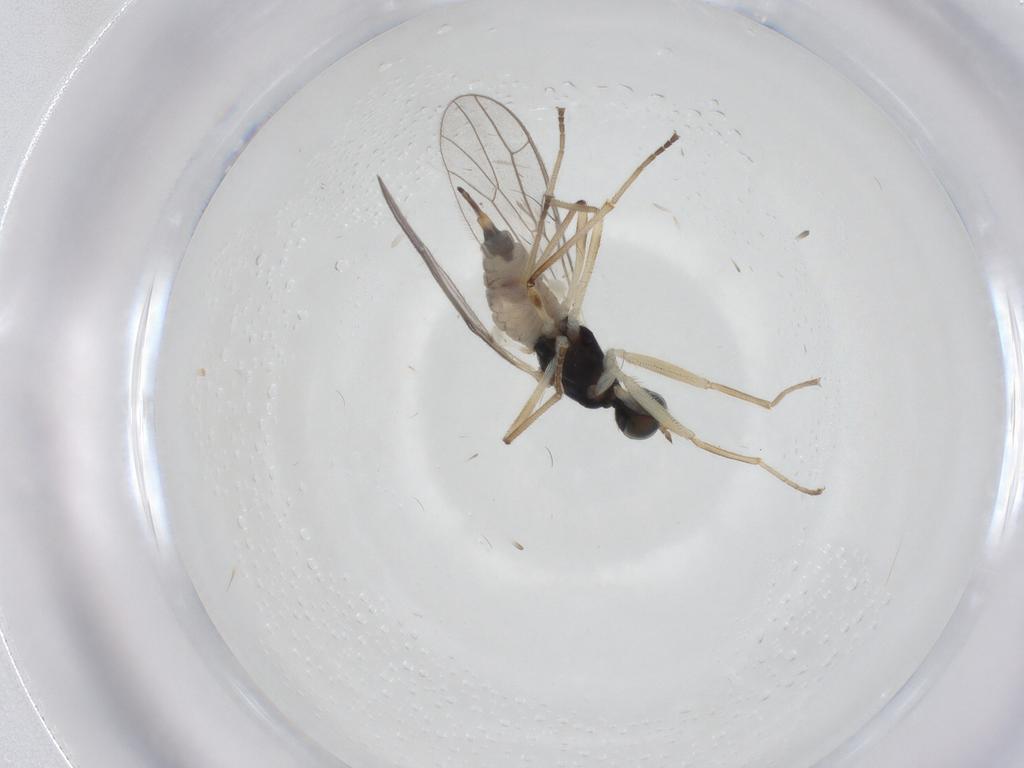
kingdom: Animalia
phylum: Arthropoda
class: Insecta
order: Diptera
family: Empididae
